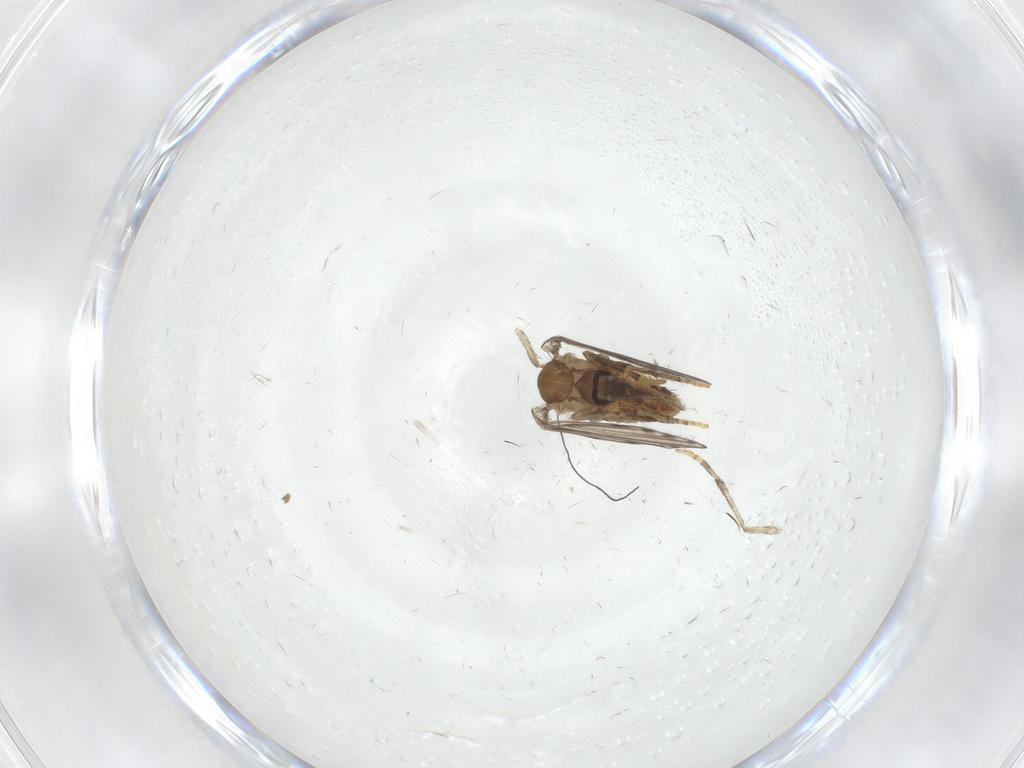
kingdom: Animalia
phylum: Arthropoda
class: Insecta
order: Diptera
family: Psychodidae
